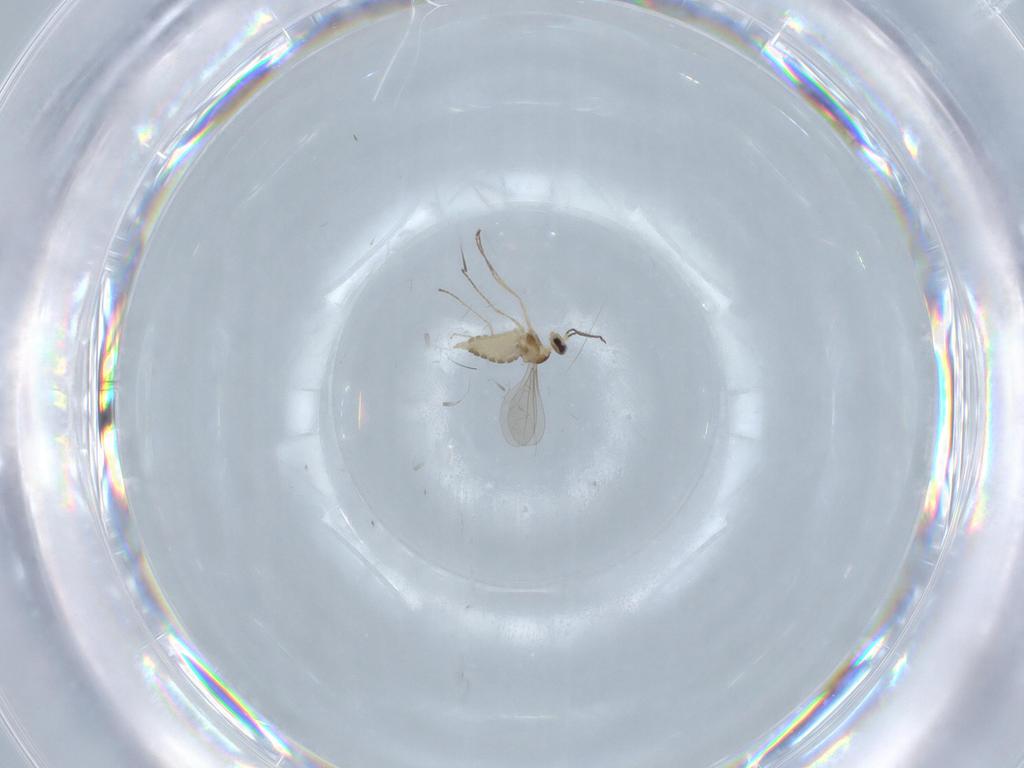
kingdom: Animalia
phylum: Arthropoda
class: Insecta
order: Diptera
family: Cecidomyiidae
